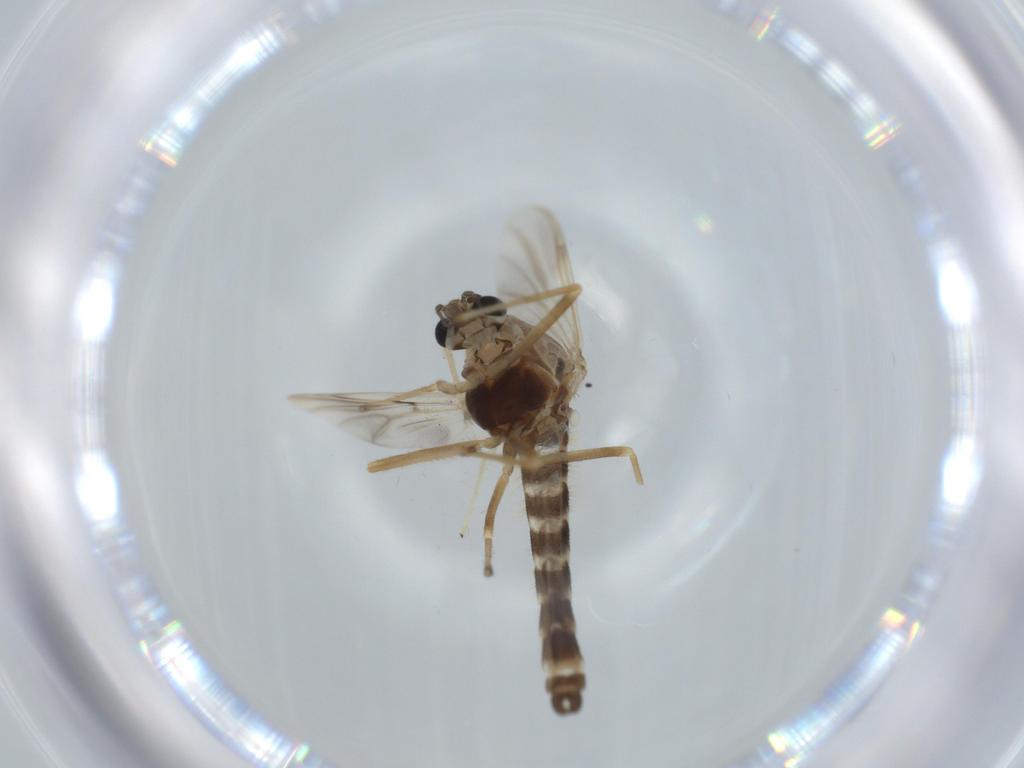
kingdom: Animalia
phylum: Arthropoda
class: Insecta
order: Diptera
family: Chironomidae
